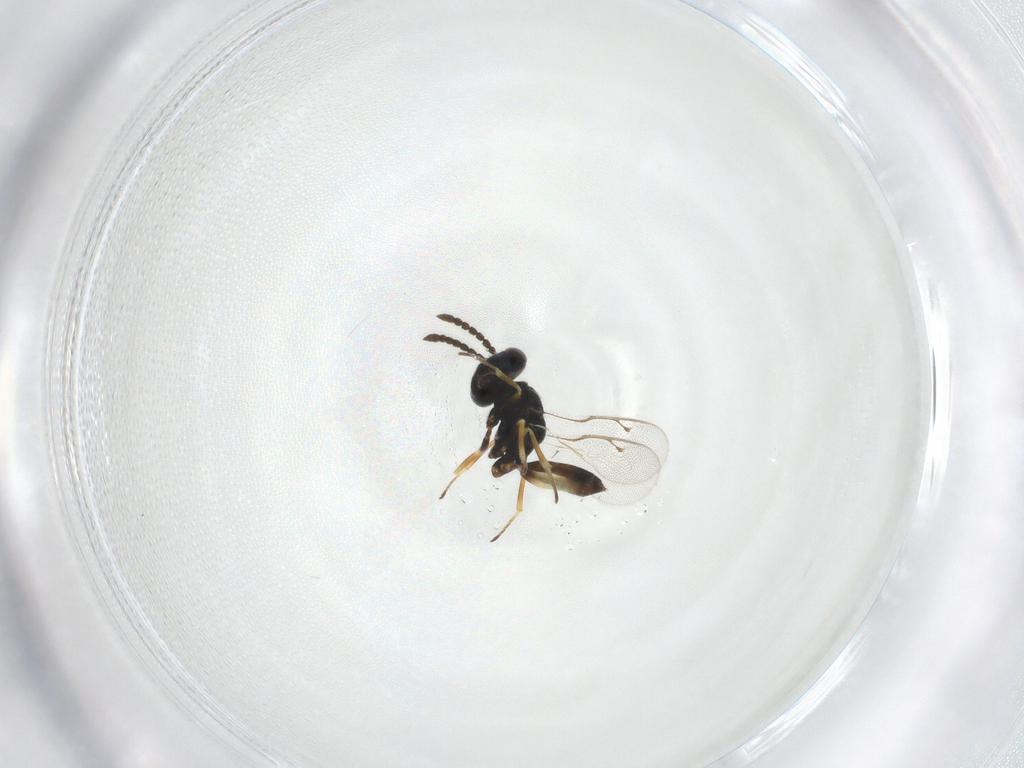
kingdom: Animalia
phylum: Arthropoda
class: Insecta
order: Hymenoptera
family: Pteromalidae
